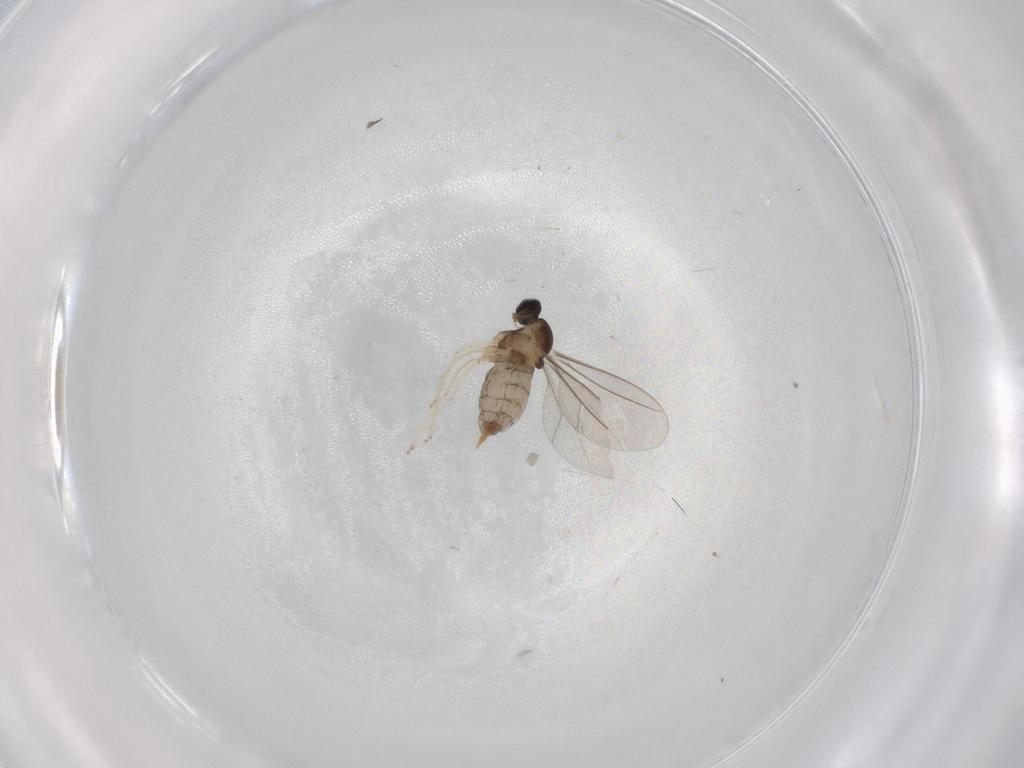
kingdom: Animalia
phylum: Arthropoda
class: Insecta
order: Diptera
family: Cecidomyiidae
